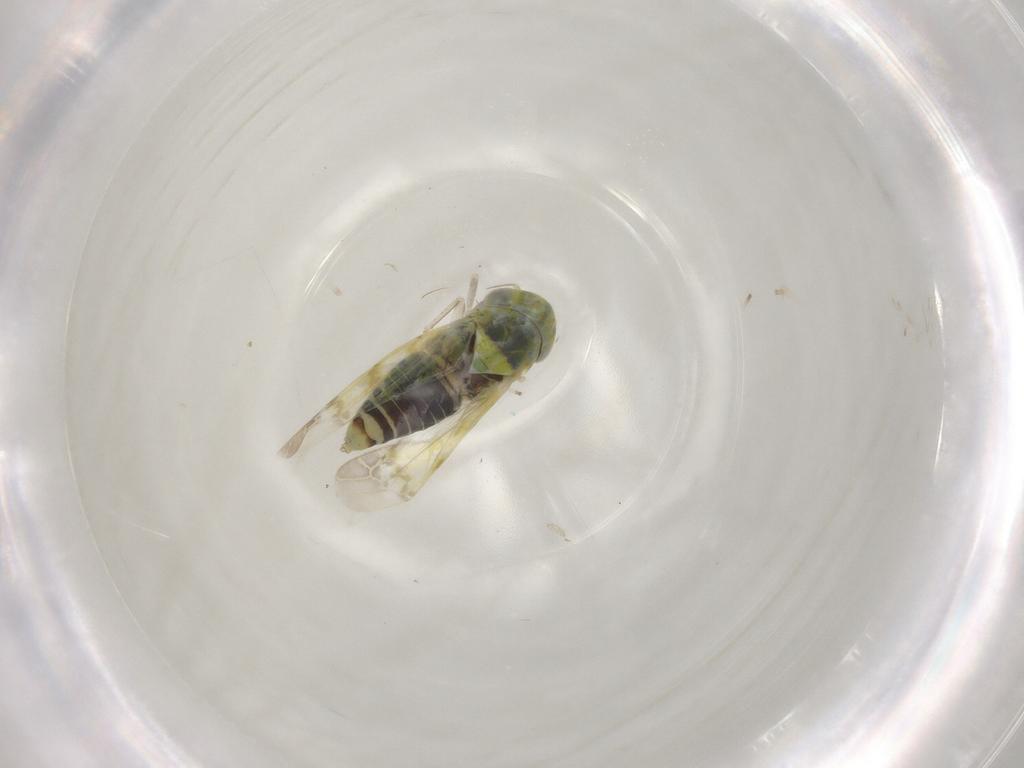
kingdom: Animalia
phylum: Arthropoda
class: Insecta
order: Hemiptera
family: Cicadellidae
